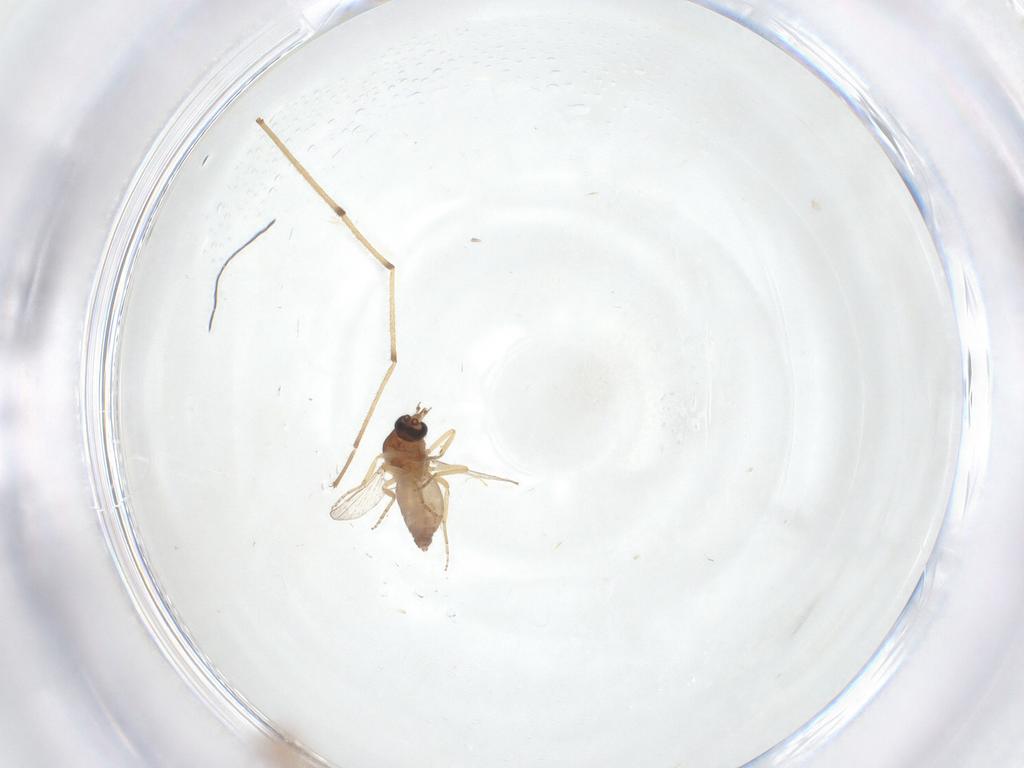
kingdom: Animalia
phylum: Arthropoda
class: Insecta
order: Diptera
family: Ceratopogonidae
